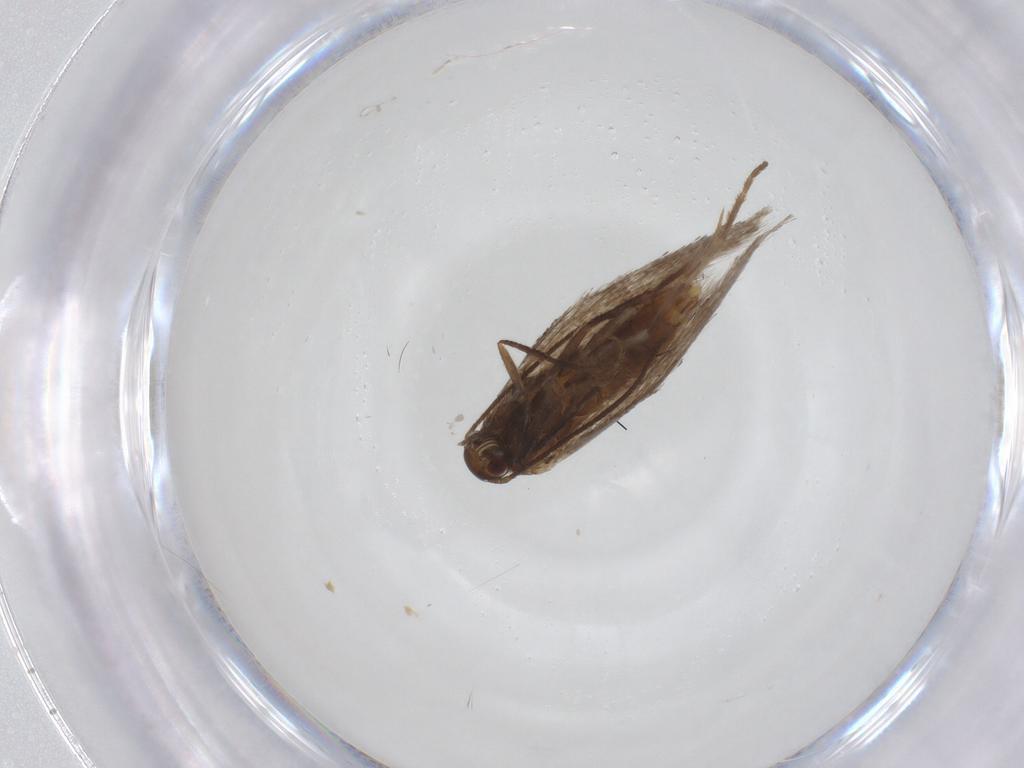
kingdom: Animalia
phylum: Arthropoda
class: Insecta
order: Lepidoptera
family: Douglasiidae
